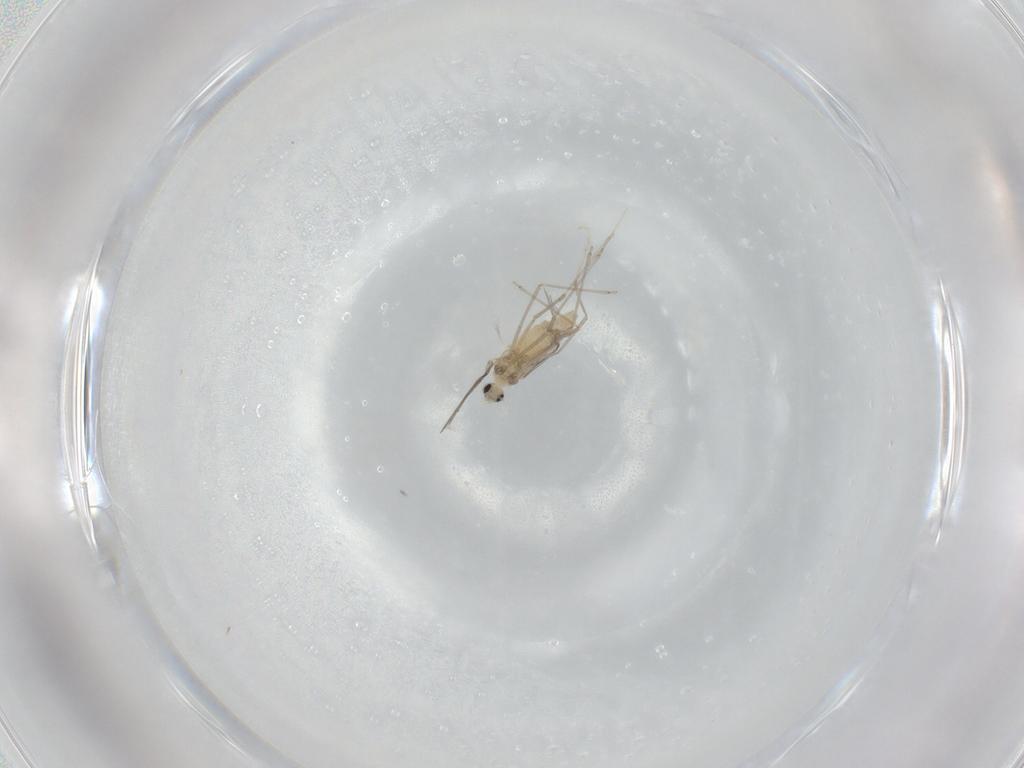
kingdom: Animalia
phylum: Arthropoda
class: Insecta
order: Diptera
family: Cecidomyiidae
